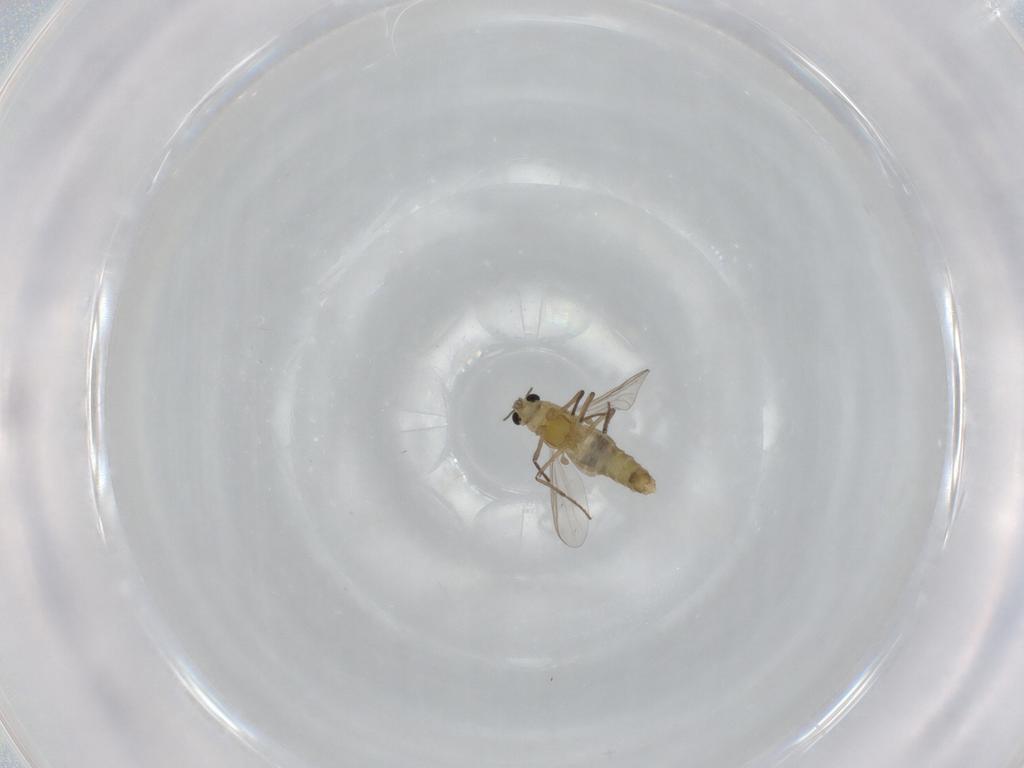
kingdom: Animalia
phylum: Arthropoda
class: Insecta
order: Diptera
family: Chironomidae
